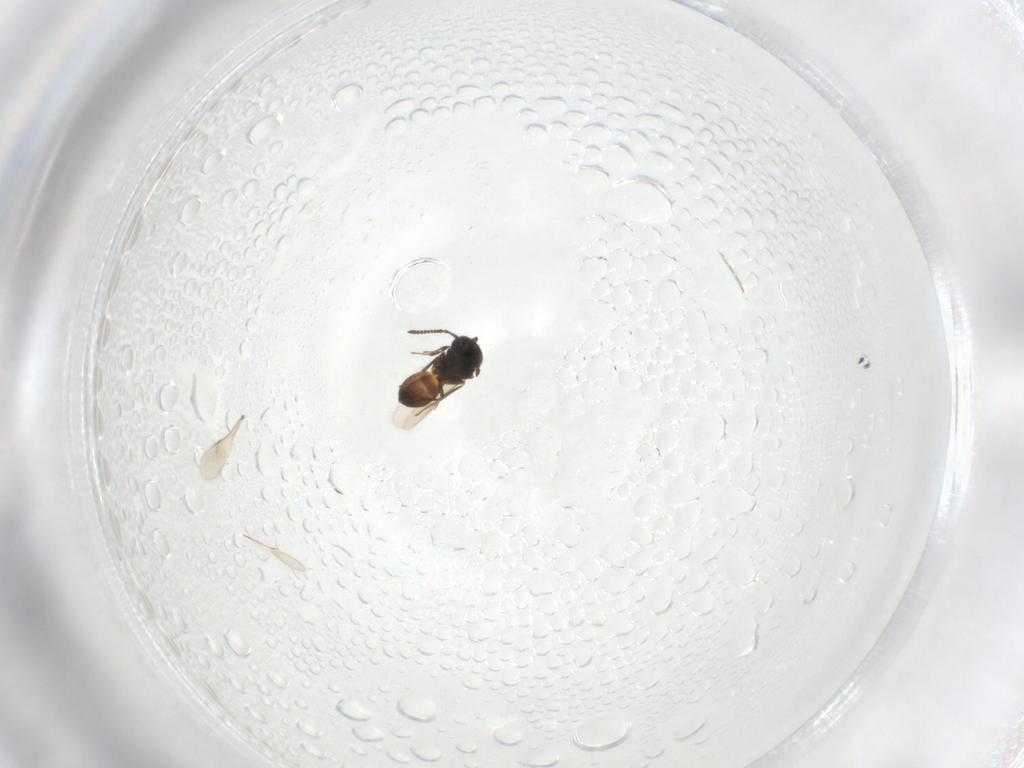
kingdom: Animalia
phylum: Arthropoda
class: Insecta
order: Hymenoptera
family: Scelionidae
